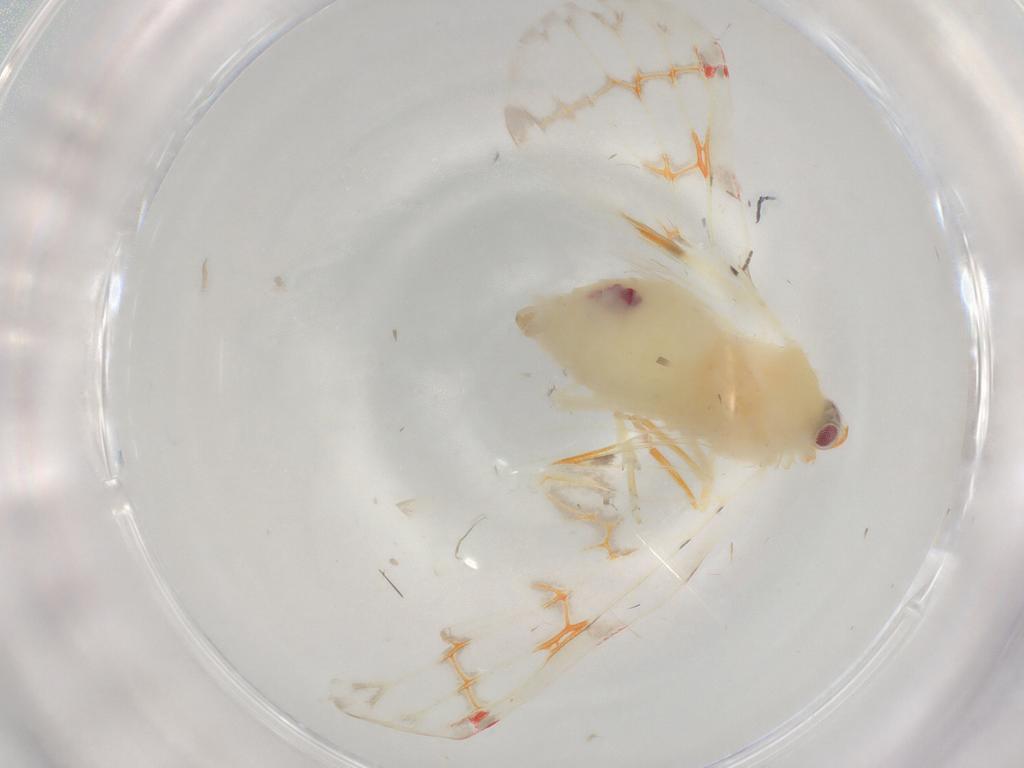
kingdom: Animalia
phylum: Arthropoda
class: Insecta
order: Hemiptera
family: Derbidae
